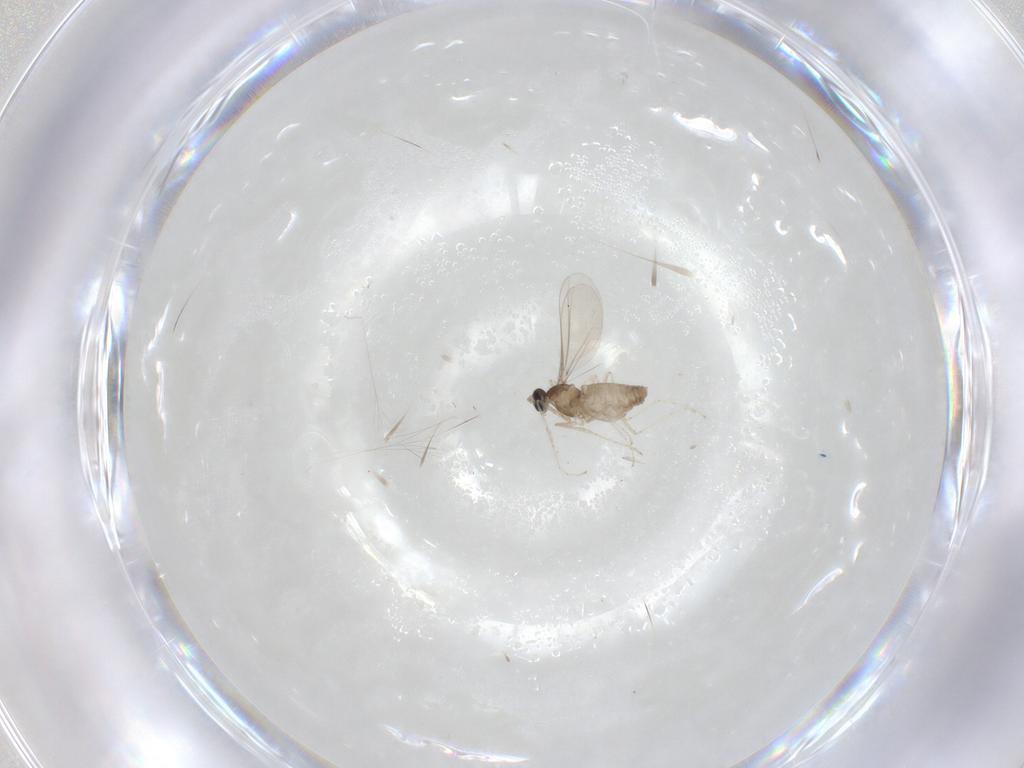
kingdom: Animalia
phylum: Arthropoda
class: Insecta
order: Diptera
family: Cecidomyiidae
